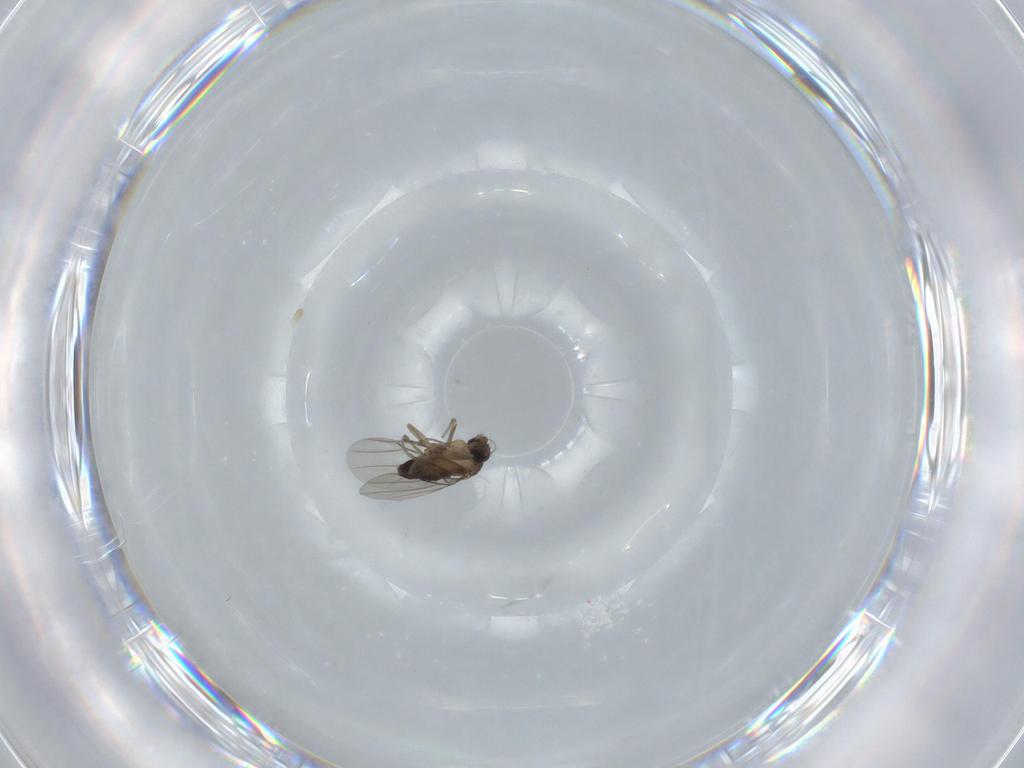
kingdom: Animalia
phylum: Arthropoda
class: Insecta
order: Diptera
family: Phoridae
